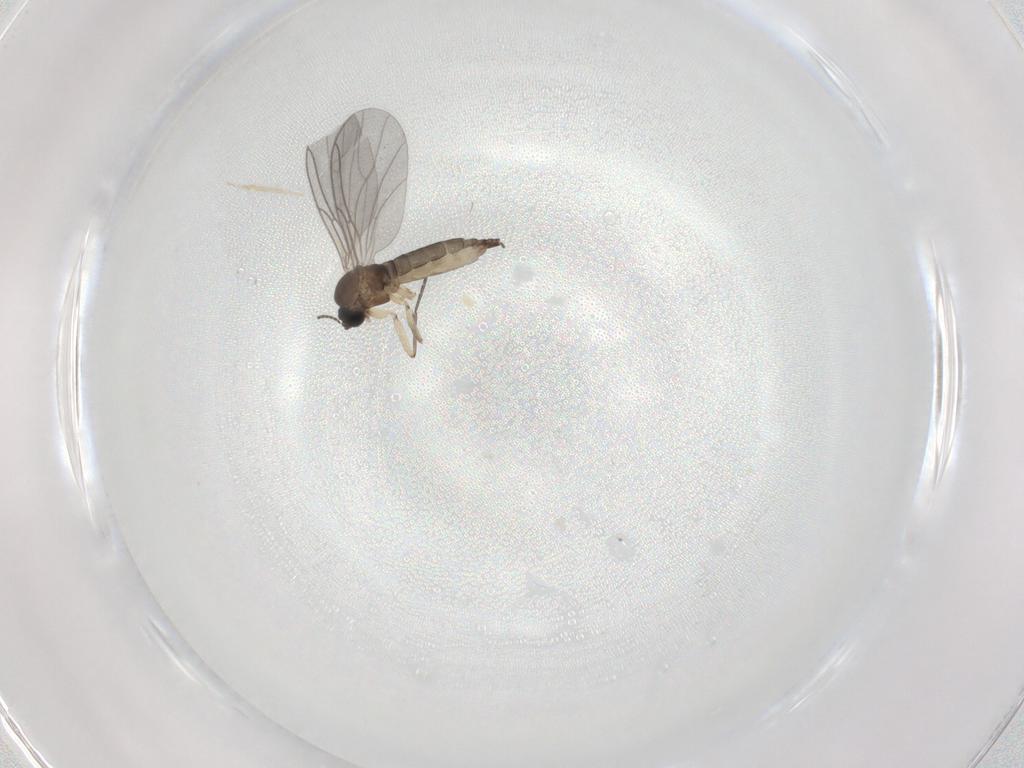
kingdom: Animalia
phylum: Arthropoda
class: Insecta
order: Diptera
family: Sciaridae
